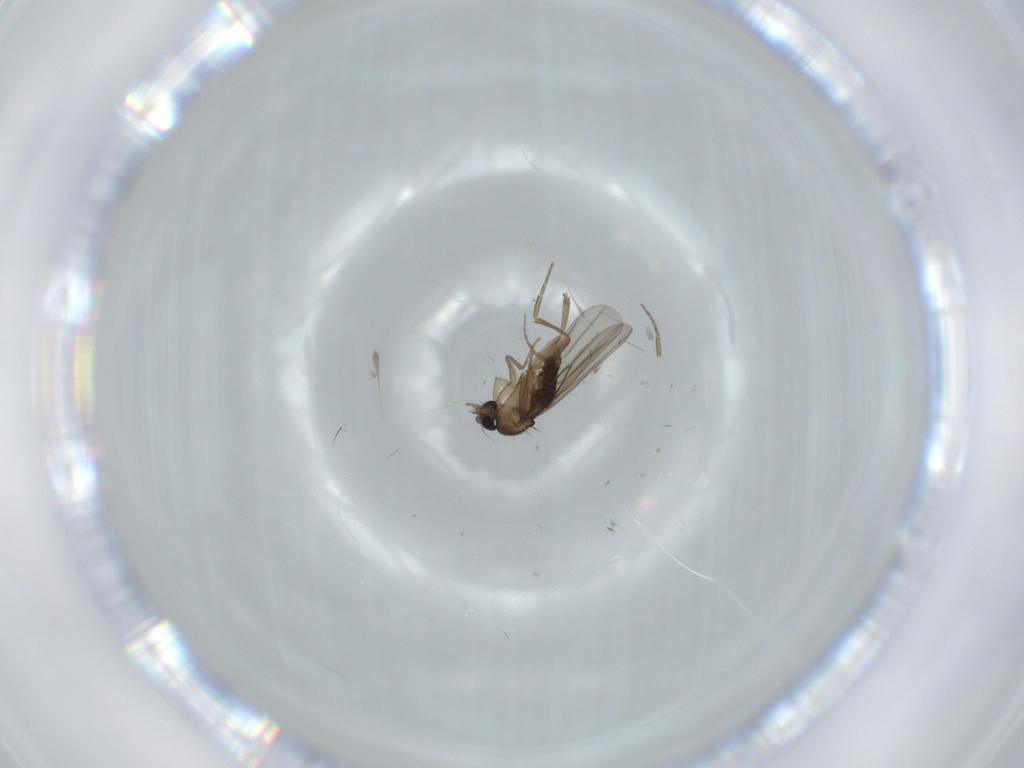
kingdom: Animalia
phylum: Arthropoda
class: Insecta
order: Diptera
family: Phoridae
